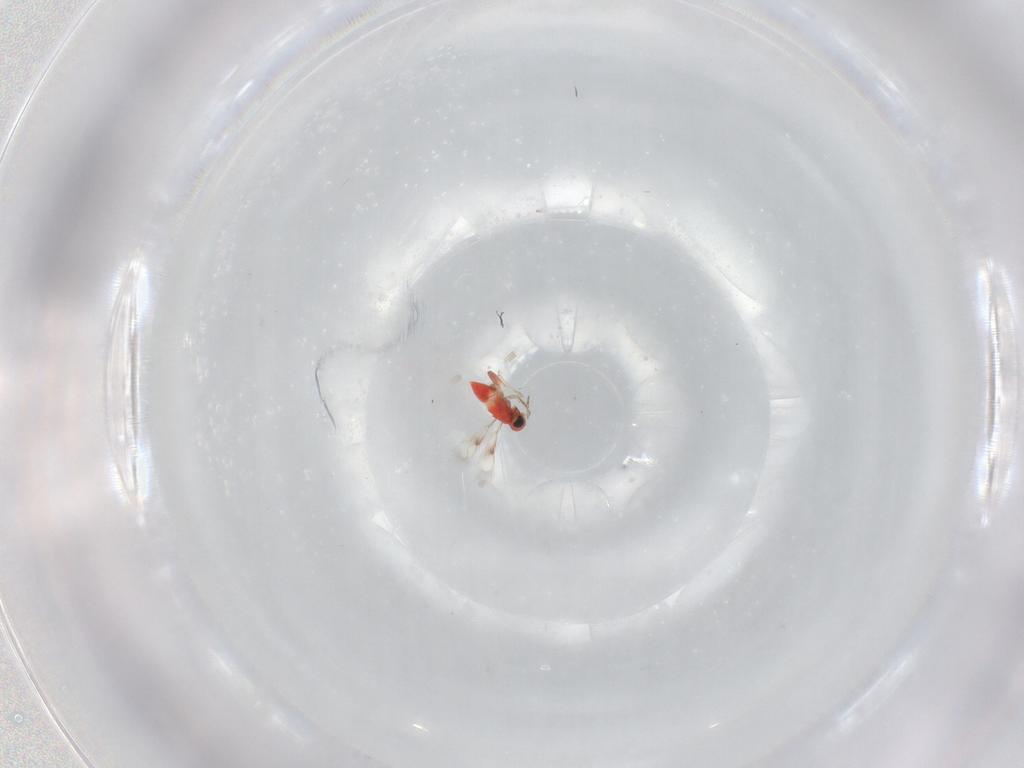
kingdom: Animalia
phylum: Arthropoda
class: Insecta
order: Hymenoptera
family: Trichogrammatidae
